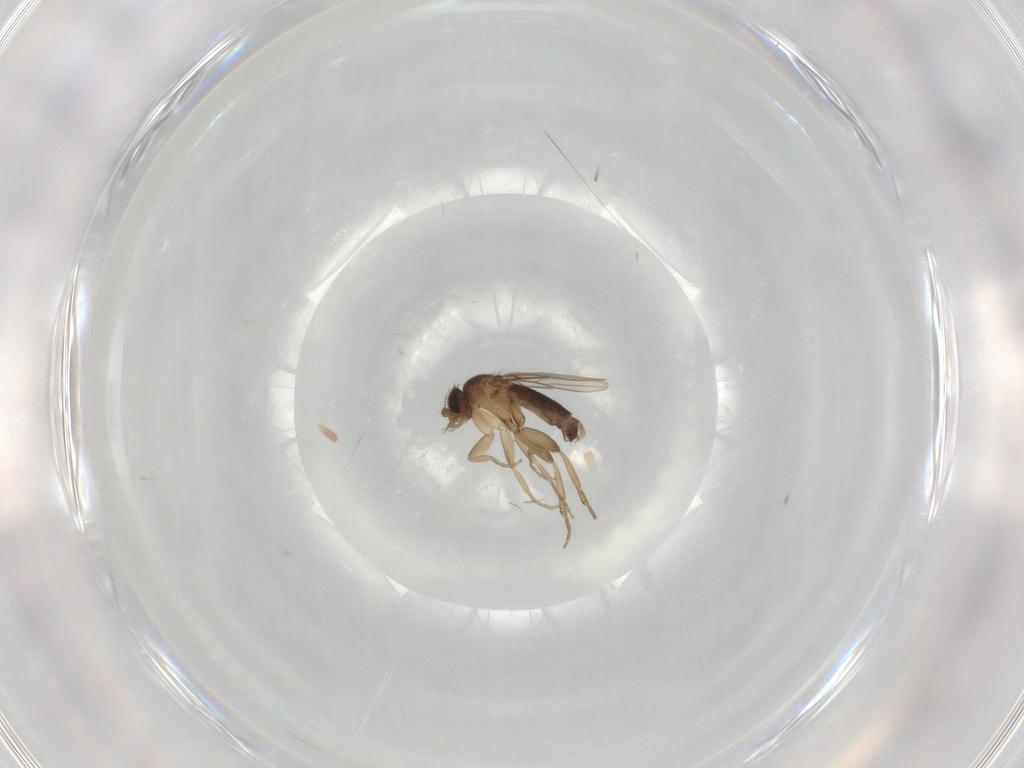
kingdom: Animalia
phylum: Arthropoda
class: Insecta
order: Diptera
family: Phoridae
